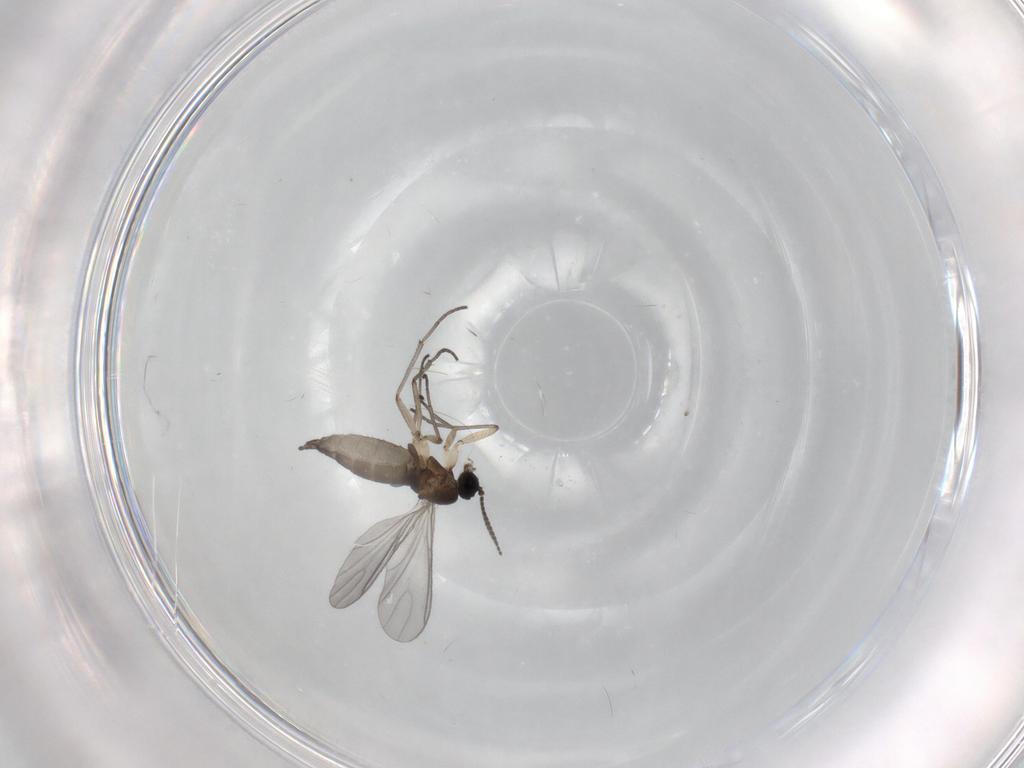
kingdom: Animalia
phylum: Arthropoda
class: Insecta
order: Diptera
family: Sciaridae
